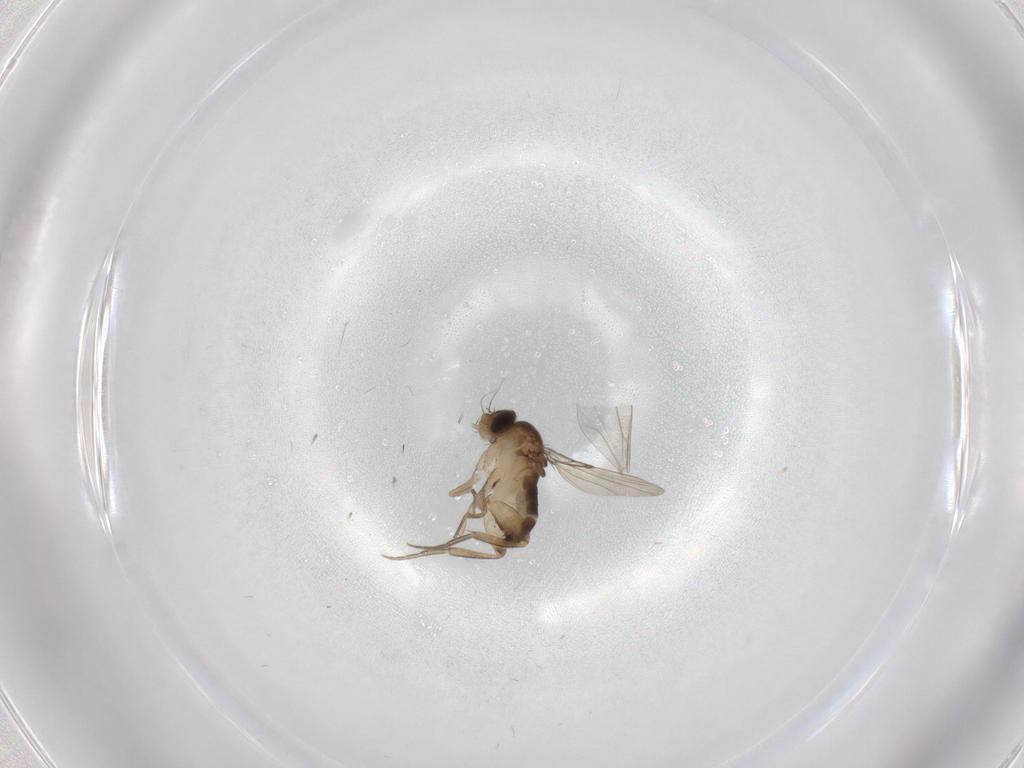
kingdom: Animalia
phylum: Arthropoda
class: Insecta
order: Diptera
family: Phoridae
